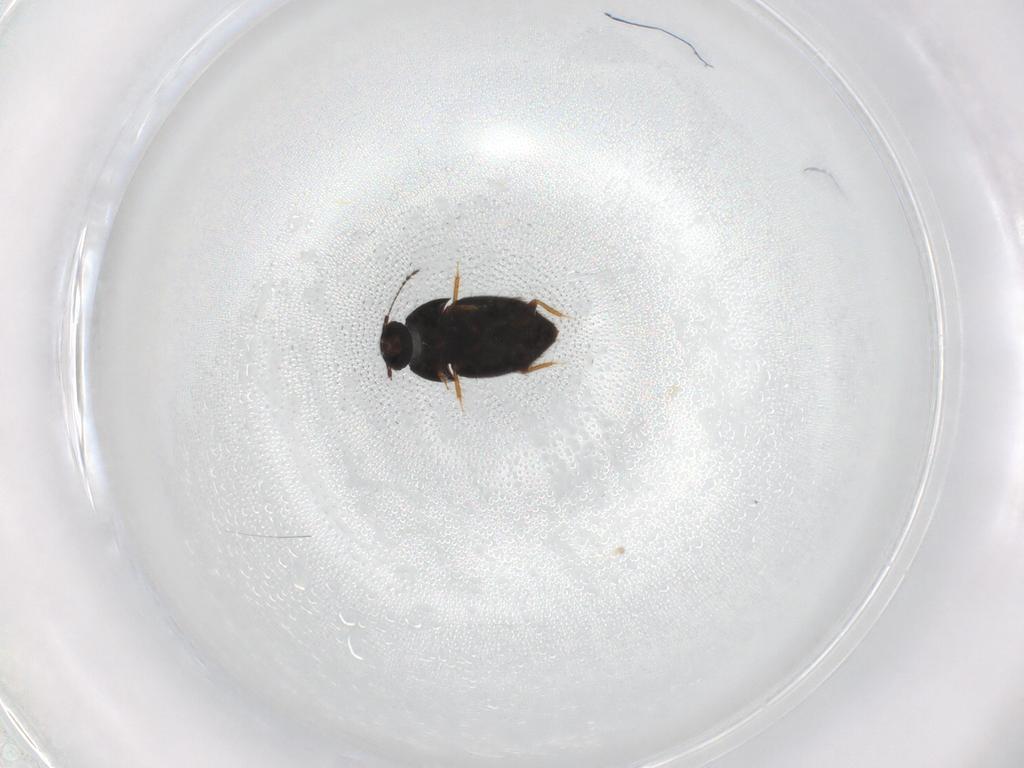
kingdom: Animalia
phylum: Arthropoda
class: Insecta
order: Coleoptera
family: Ptiliidae
